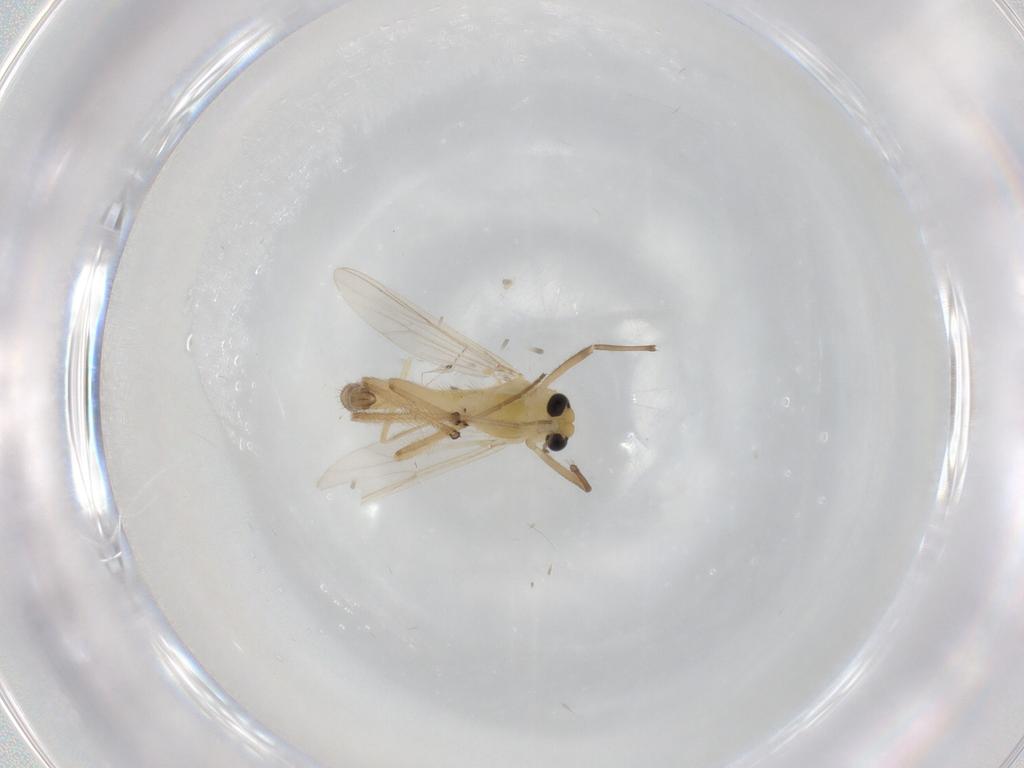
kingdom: Animalia
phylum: Arthropoda
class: Insecta
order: Diptera
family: Chironomidae
